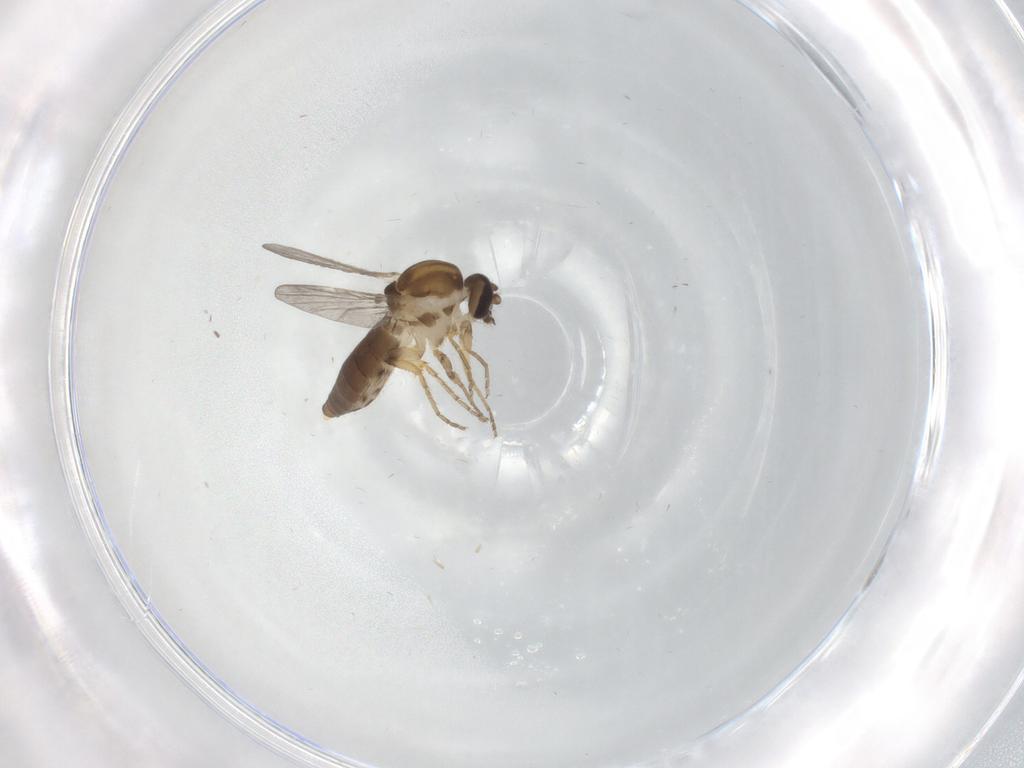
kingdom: Animalia
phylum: Arthropoda
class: Insecta
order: Diptera
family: Ceratopogonidae
